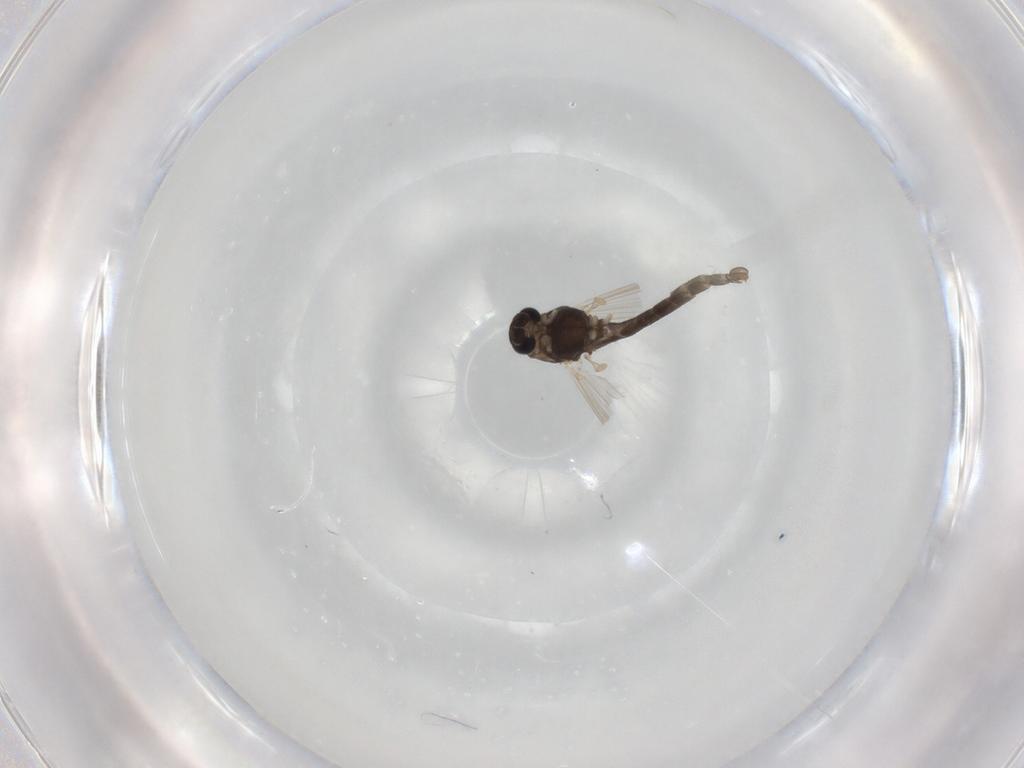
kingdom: Animalia
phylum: Arthropoda
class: Insecta
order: Diptera
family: Chironomidae
